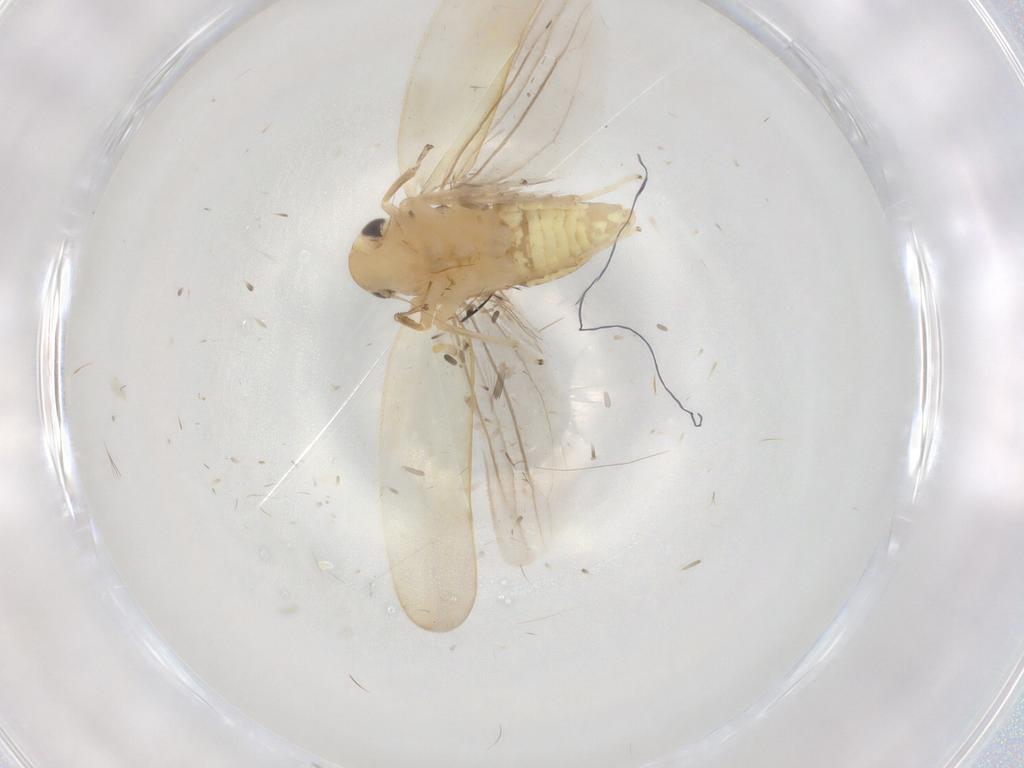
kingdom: Animalia
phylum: Arthropoda
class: Insecta
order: Hemiptera
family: Cicadellidae
